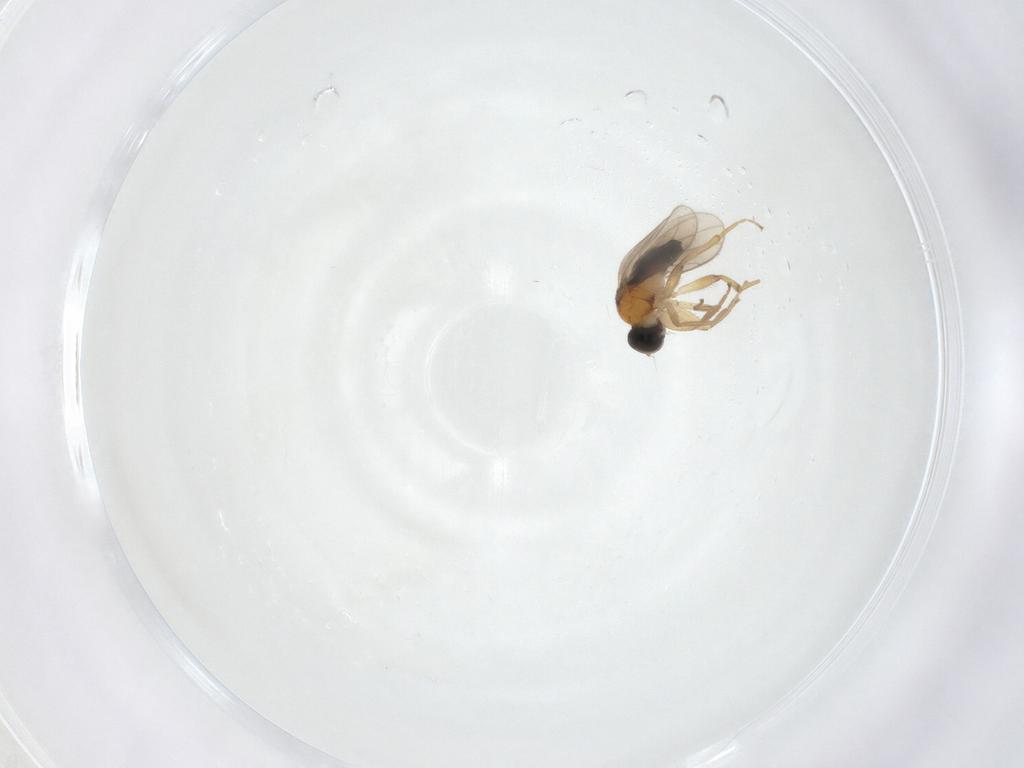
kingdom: Animalia
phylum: Arthropoda
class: Insecta
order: Diptera
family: Hybotidae
